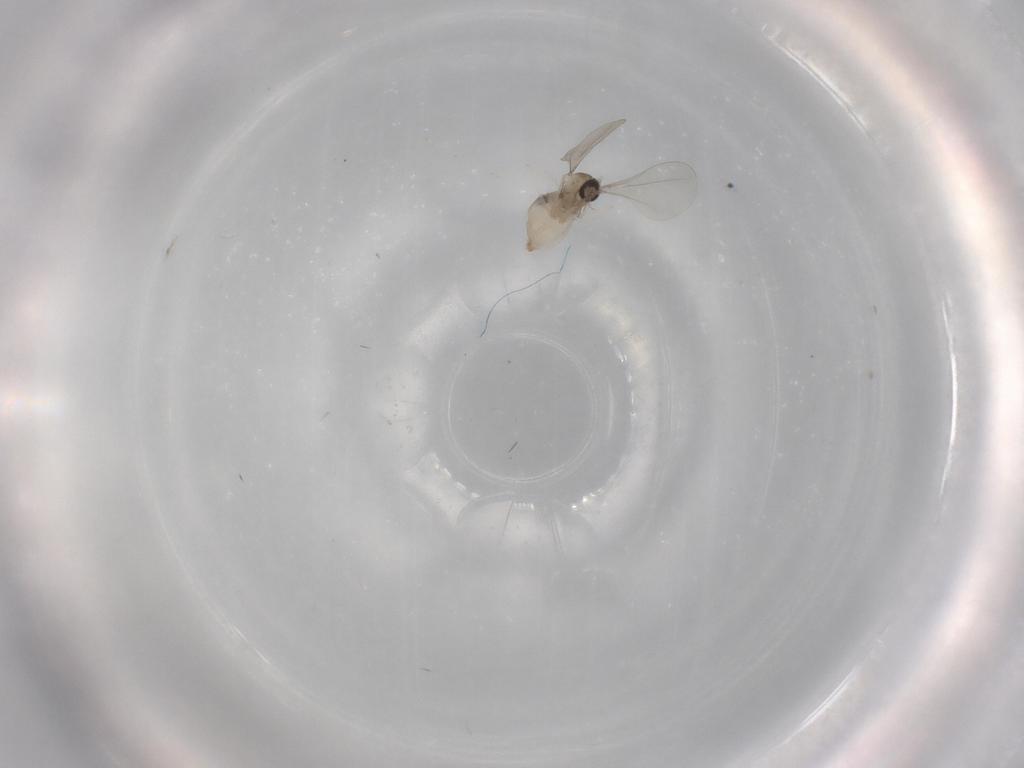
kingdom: Animalia
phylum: Arthropoda
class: Insecta
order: Diptera
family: Cecidomyiidae
